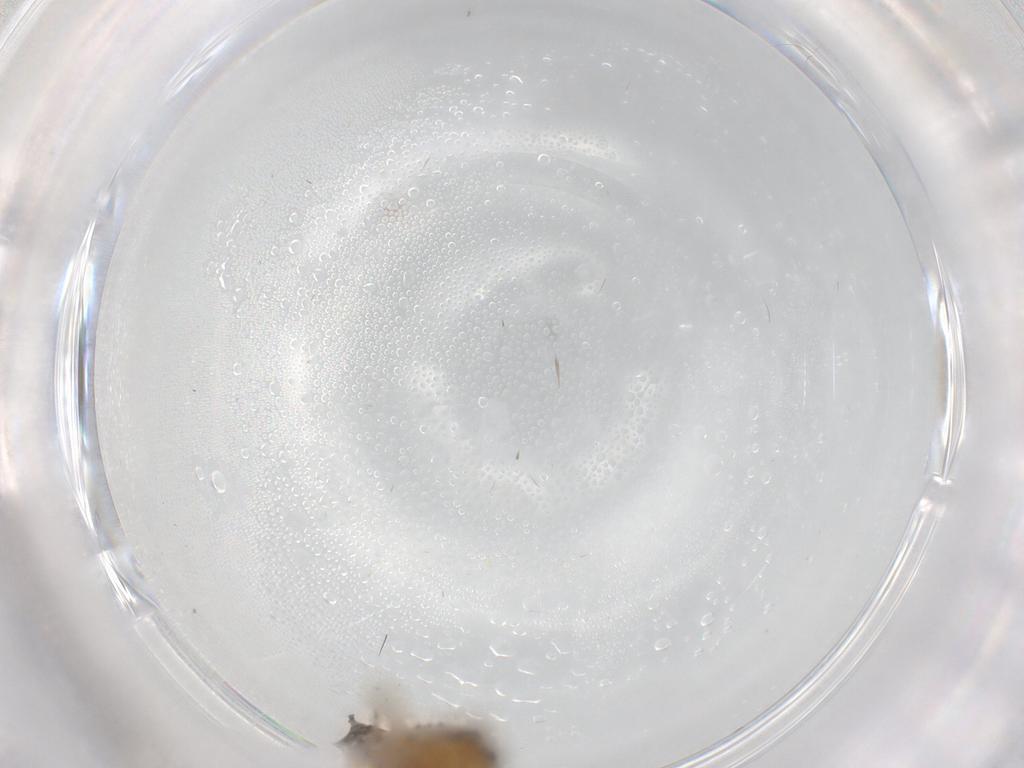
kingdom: Animalia
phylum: Arthropoda
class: Insecta
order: Hemiptera
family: Cicadellidae
